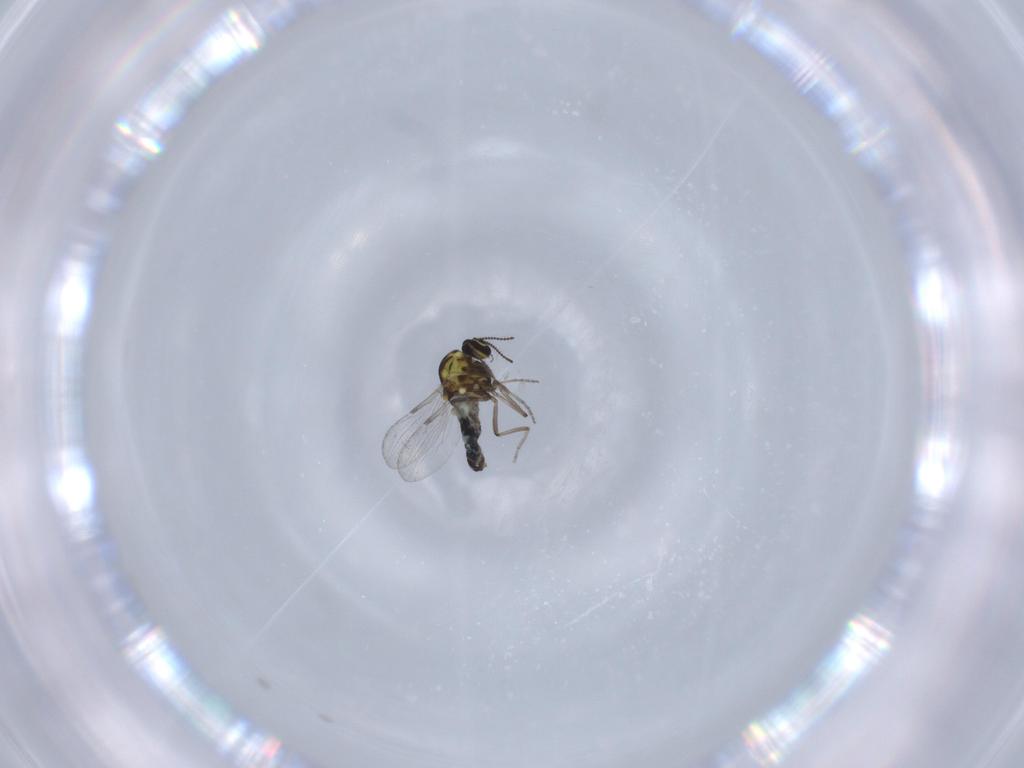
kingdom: Animalia
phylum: Arthropoda
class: Insecta
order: Diptera
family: Ceratopogonidae
